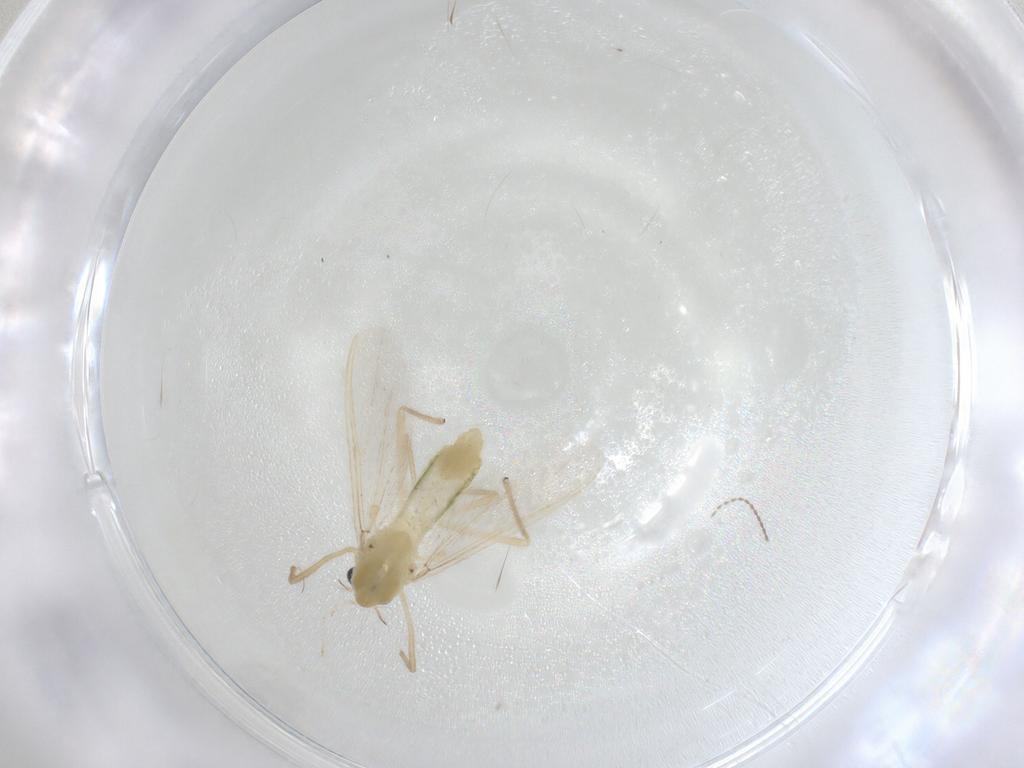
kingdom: Animalia
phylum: Arthropoda
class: Insecta
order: Diptera
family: Cecidomyiidae
